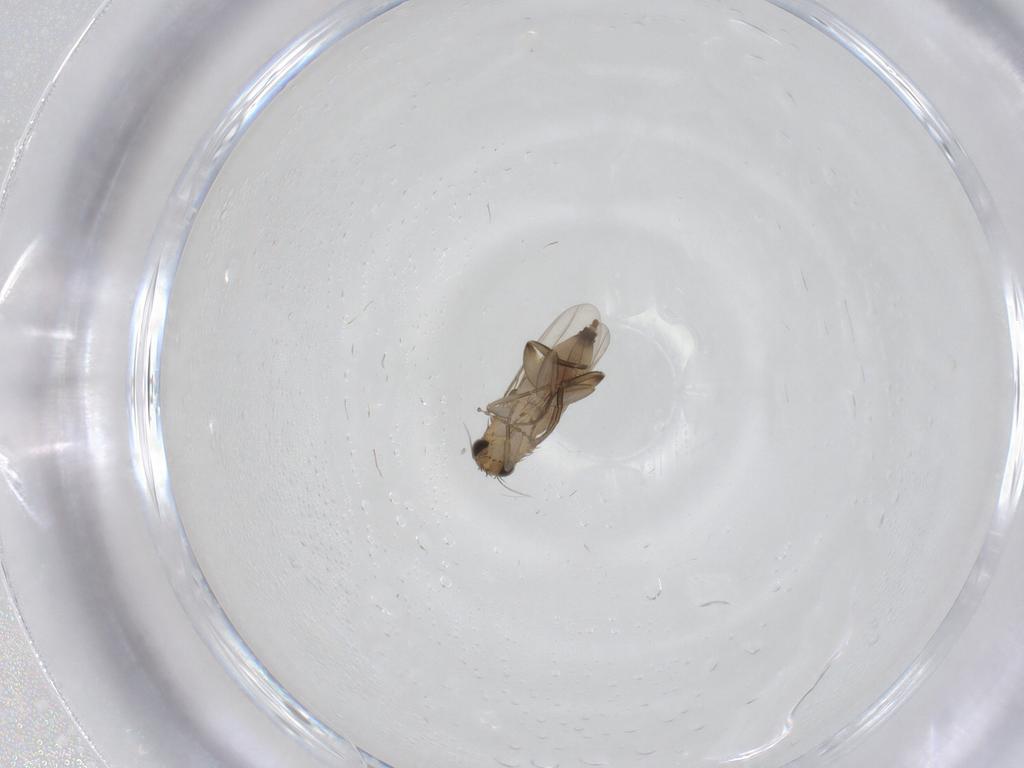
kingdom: Animalia
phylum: Arthropoda
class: Insecta
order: Diptera
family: Phoridae
